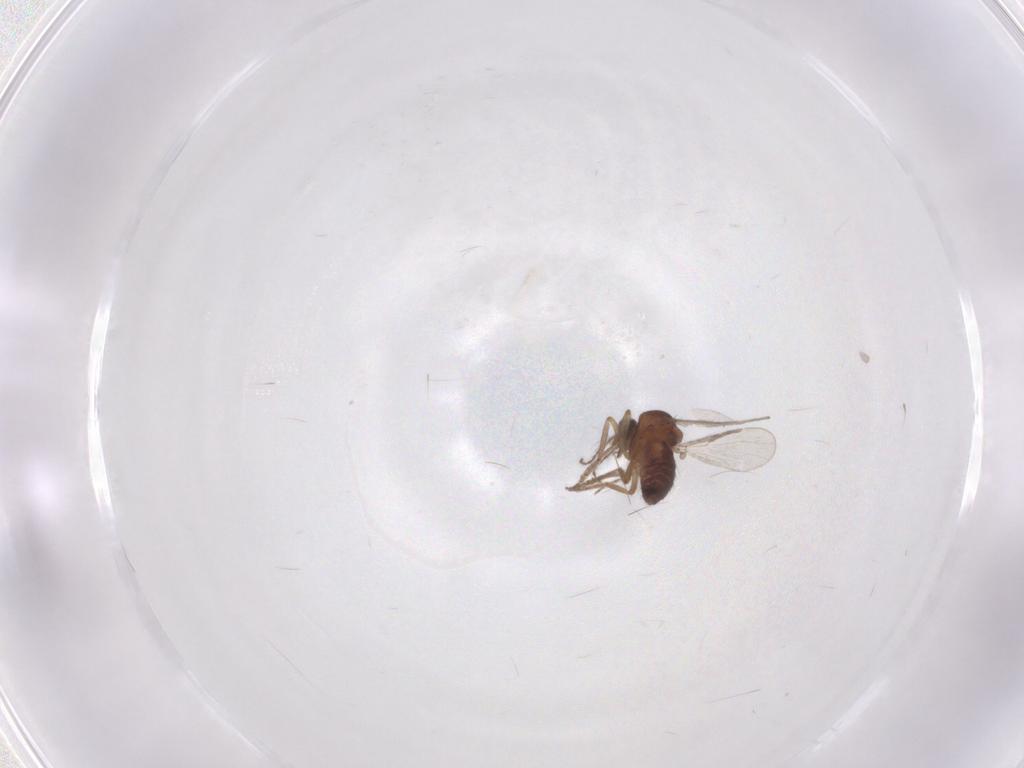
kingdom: Animalia
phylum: Arthropoda
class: Insecta
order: Diptera
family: Ceratopogonidae
